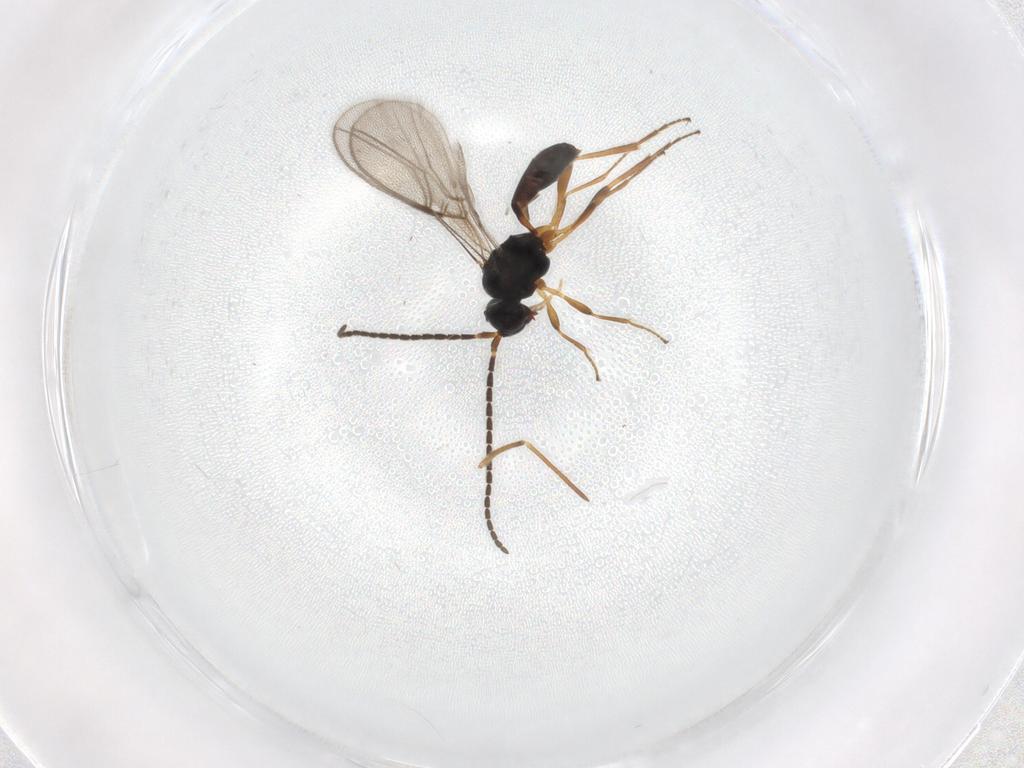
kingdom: Animalia
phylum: Arthropoda
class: Insecta
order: Hymenoptera
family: Braconidae
